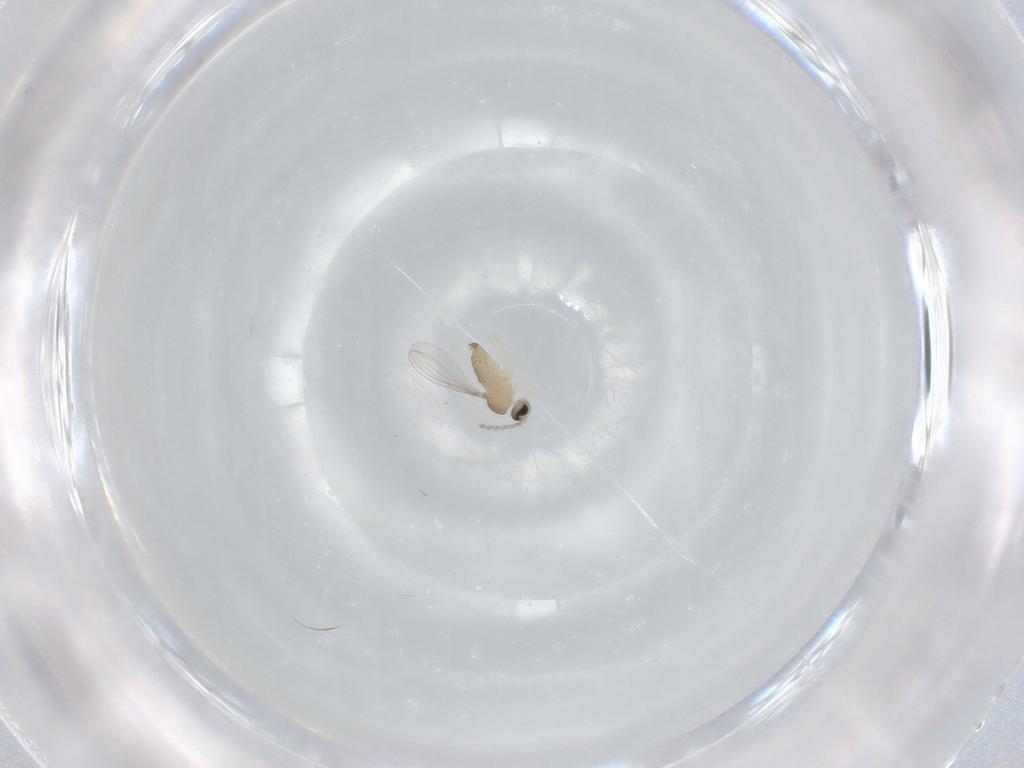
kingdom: Animalia
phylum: Arthropoda
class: Insecta
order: Diptera
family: Cecidomyiidae
